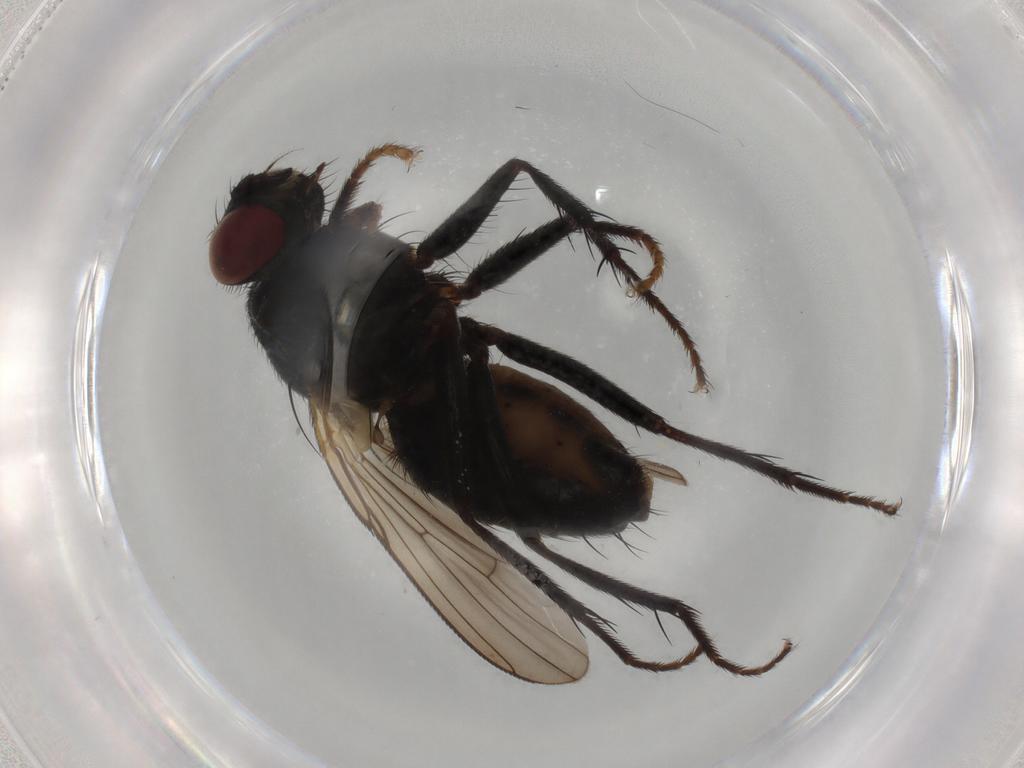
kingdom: Animalia
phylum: Arthropoda
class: Insecta
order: Diptera
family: Muscidae
